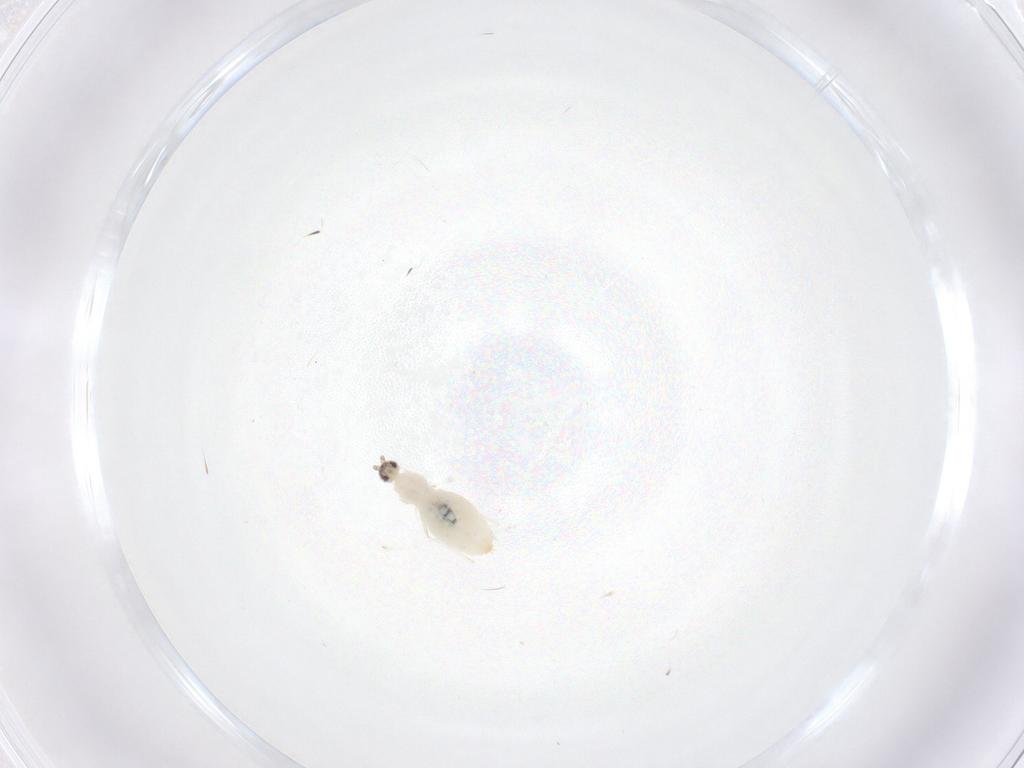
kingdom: Animalia
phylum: Arthropoda
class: Insecta
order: Diptera
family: Cecidomyiidae
